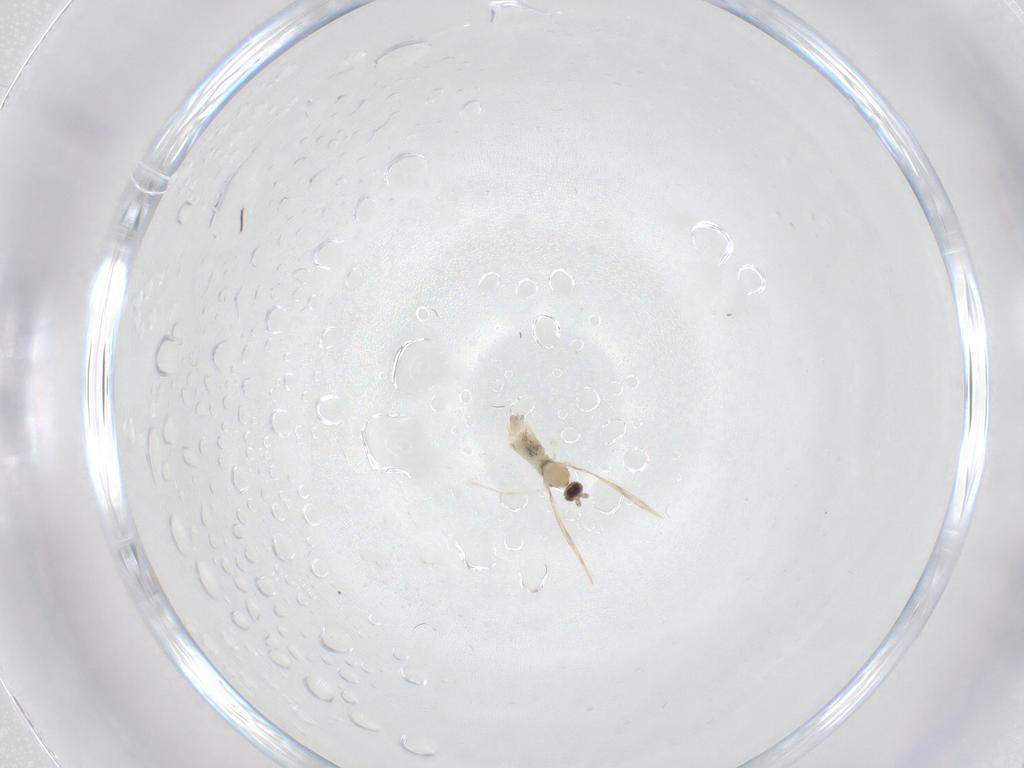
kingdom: Animalia
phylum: Arthropoda
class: Insecta
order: Diptera
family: Cecidomyiidae
